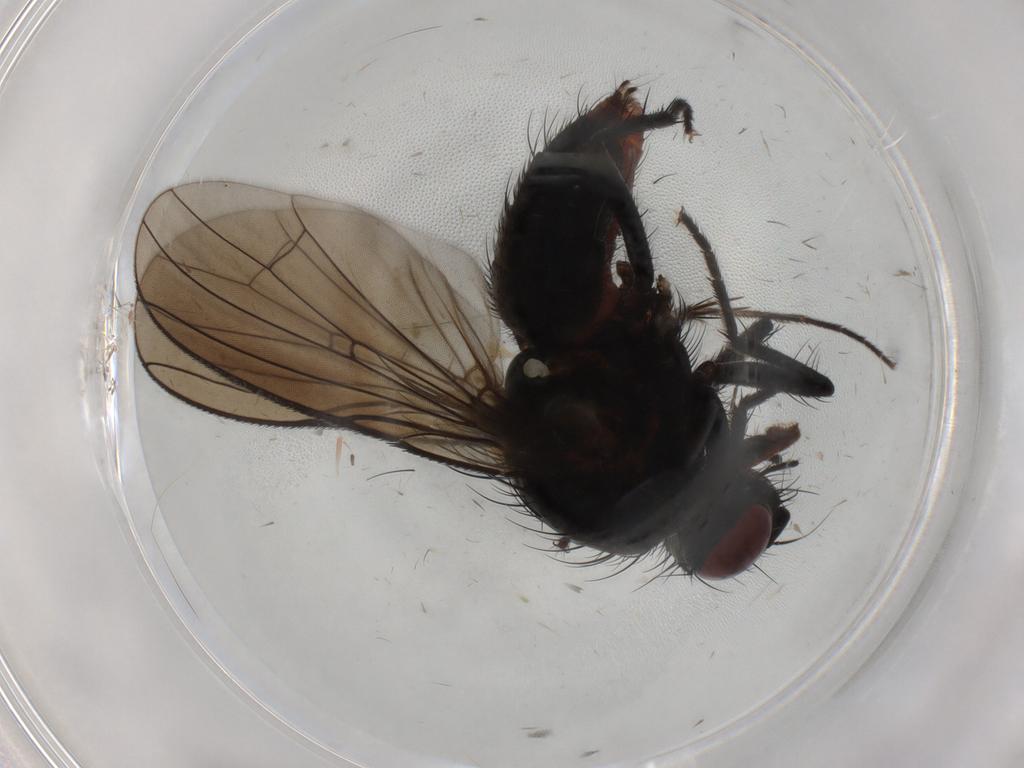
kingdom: Animalia
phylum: Arthropoda
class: Insecta
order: Diptera
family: Anthomyiidae
